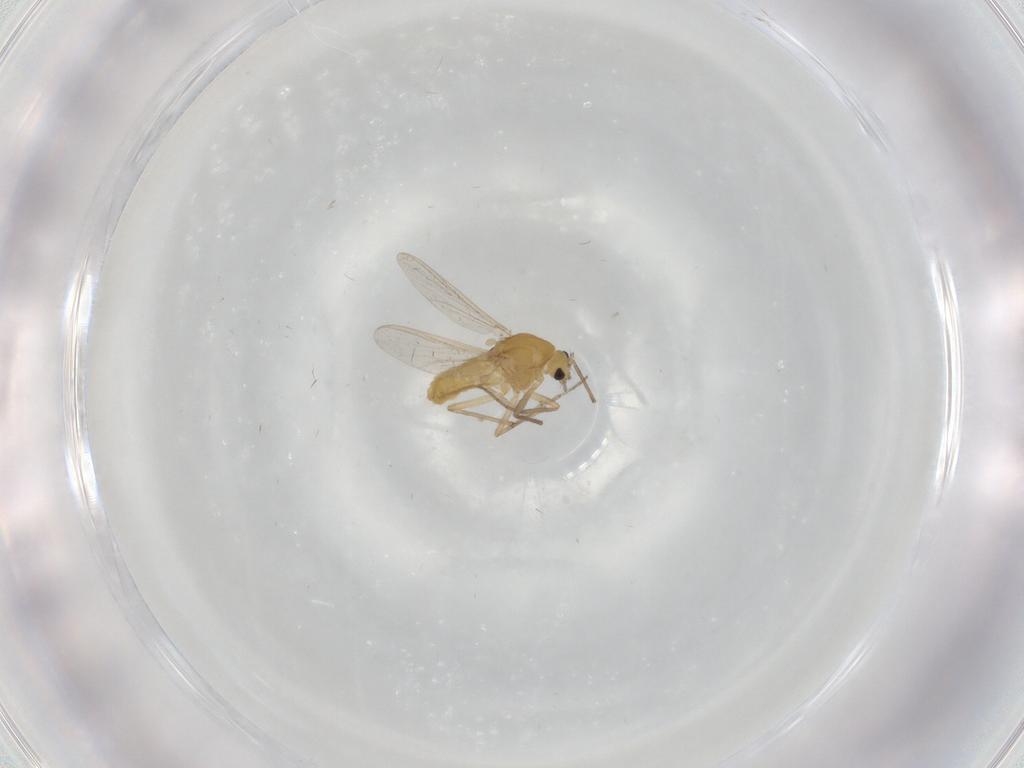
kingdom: Animalia
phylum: Arthropoda
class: Insecta
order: Diptera
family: Chironomidae
